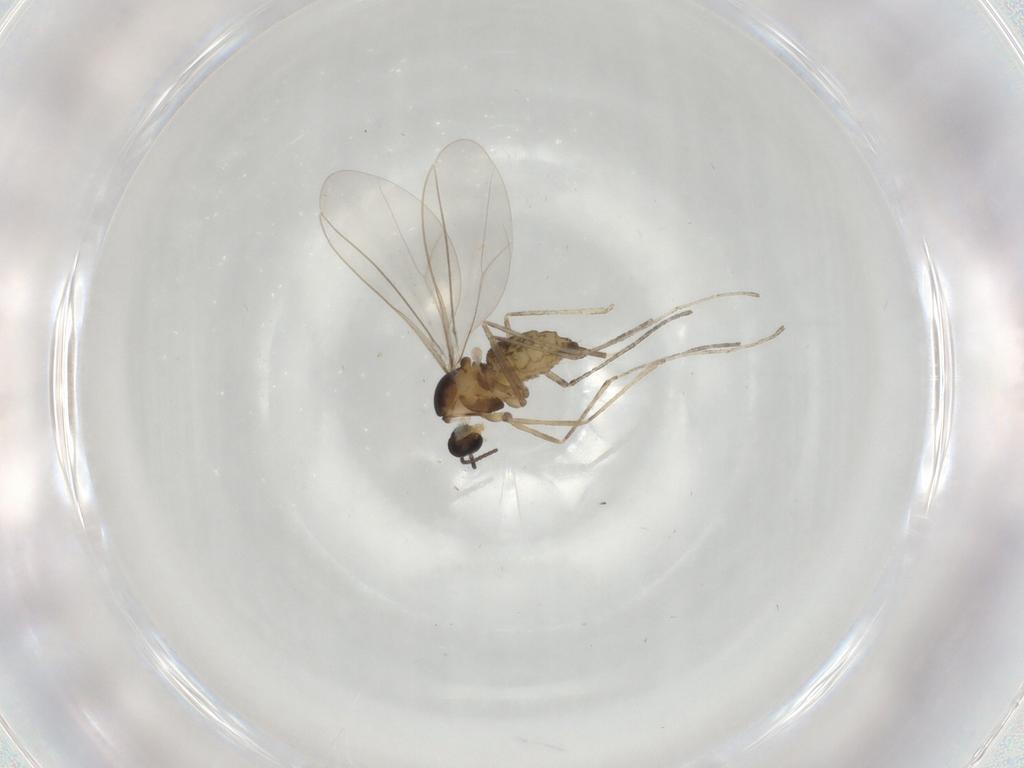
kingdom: Animalia
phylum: Arthropoda
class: Insecta
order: Diptera
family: Cecidomyiidae
